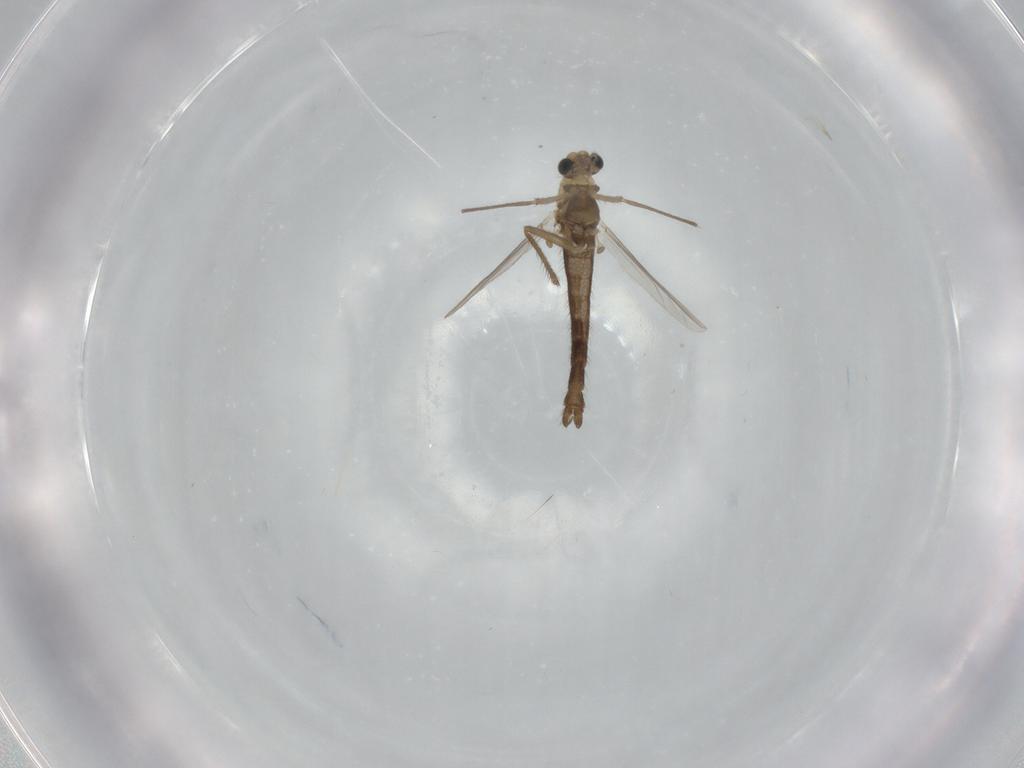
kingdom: Animalia
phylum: Arthropoda
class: Insecta
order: Diptera
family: Chironomidae
